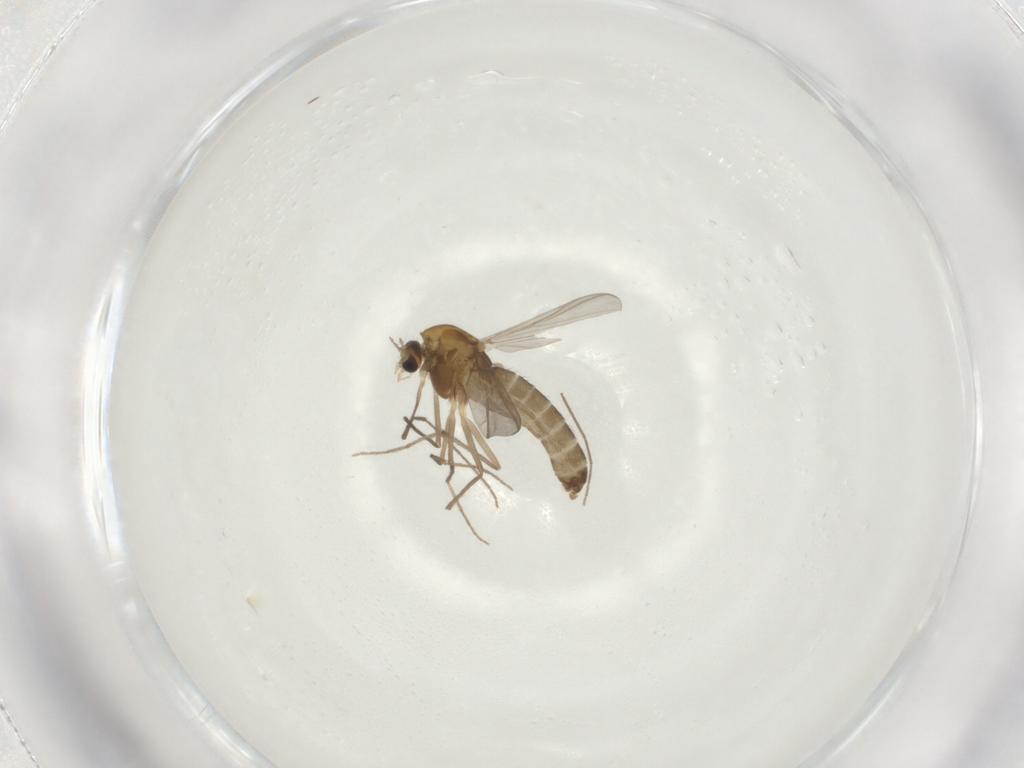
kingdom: Animalia
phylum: Arthropoda
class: Insecta
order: Diptera
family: Chironomidae
